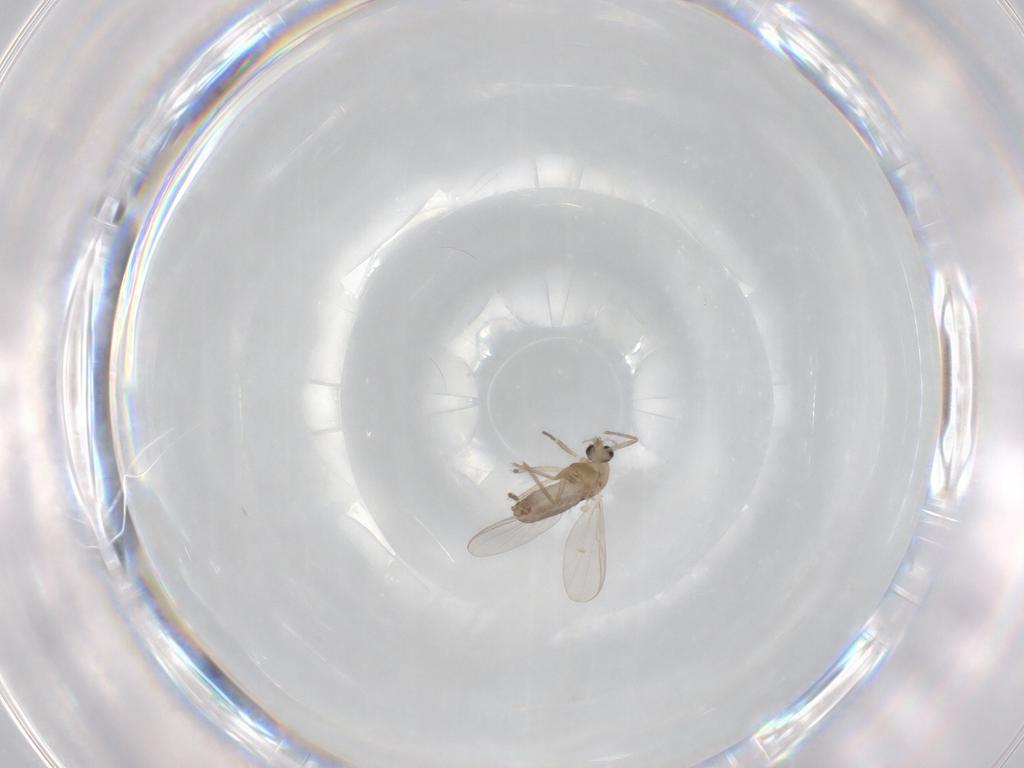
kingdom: Animalia
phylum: Arthropoda
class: Insecta
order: Diptera
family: Chironomidae
